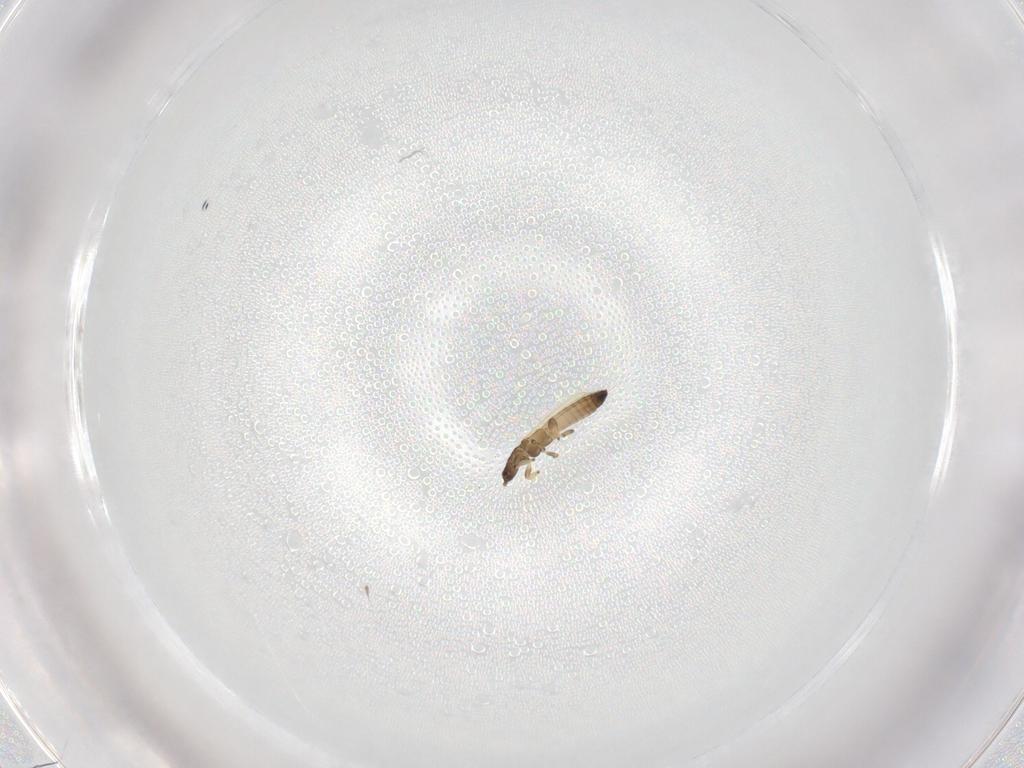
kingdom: Animalia
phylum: Arthropoda
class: Insecta
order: Thysanoptera
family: Thripidae
